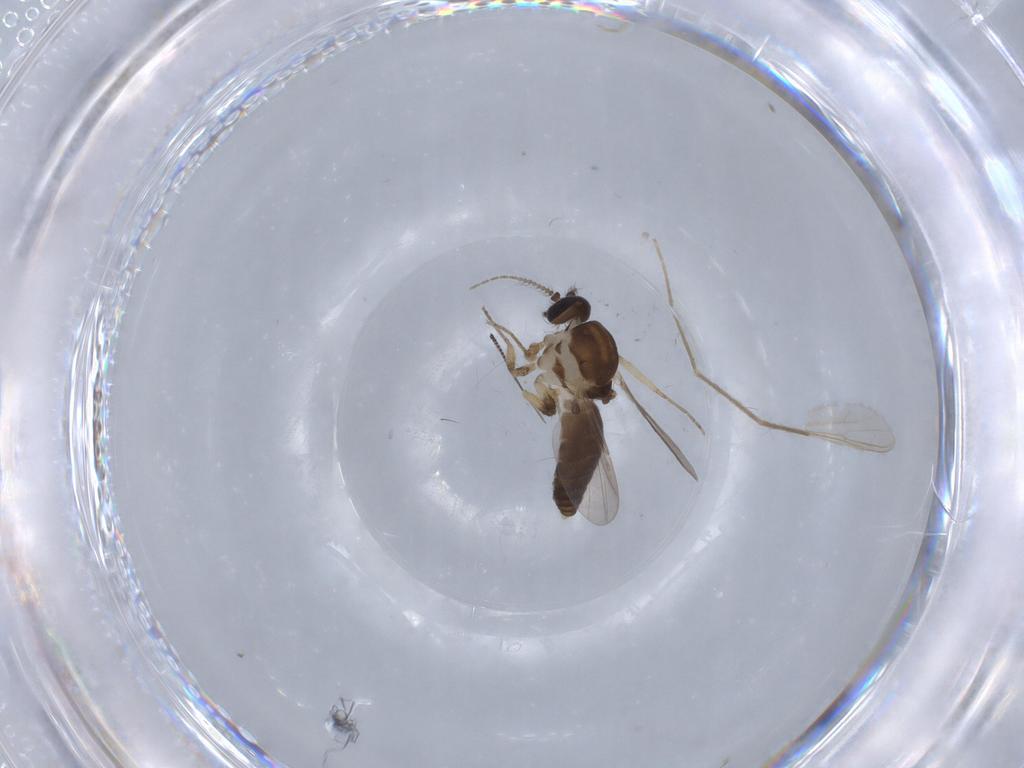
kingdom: Animalia
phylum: Arthropoda
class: Insecta
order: Diptera
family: Ceratopogonidae
